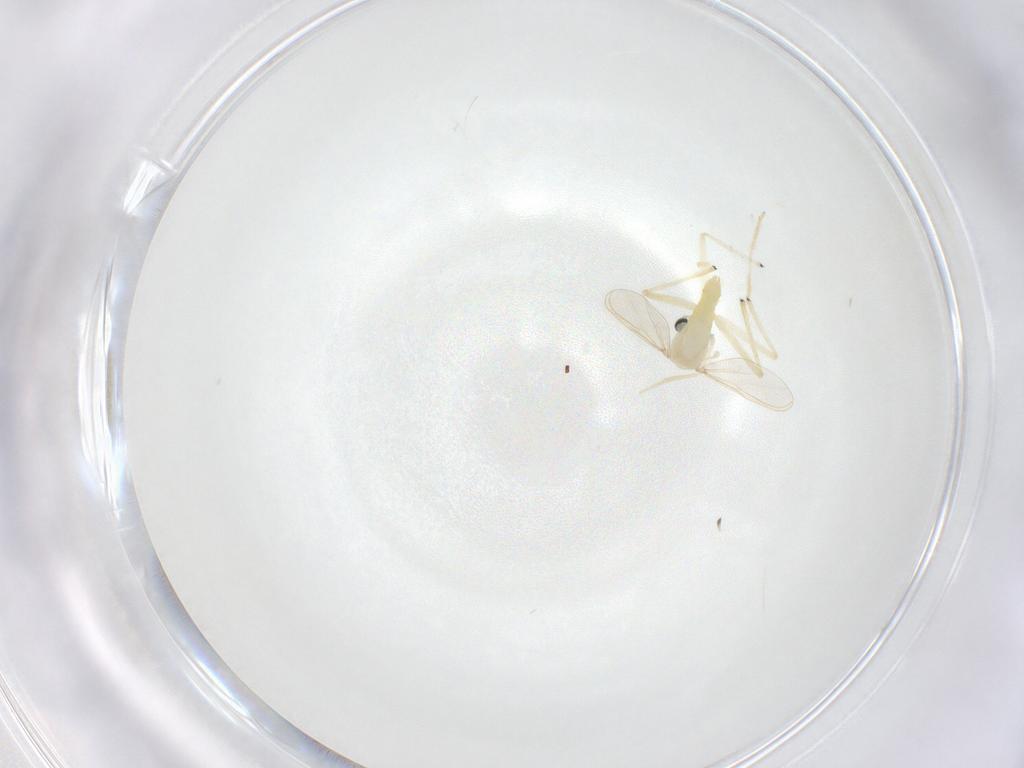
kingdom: Animalia
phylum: Arthropoda
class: Insecta
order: Diptera
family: Chironomidae
